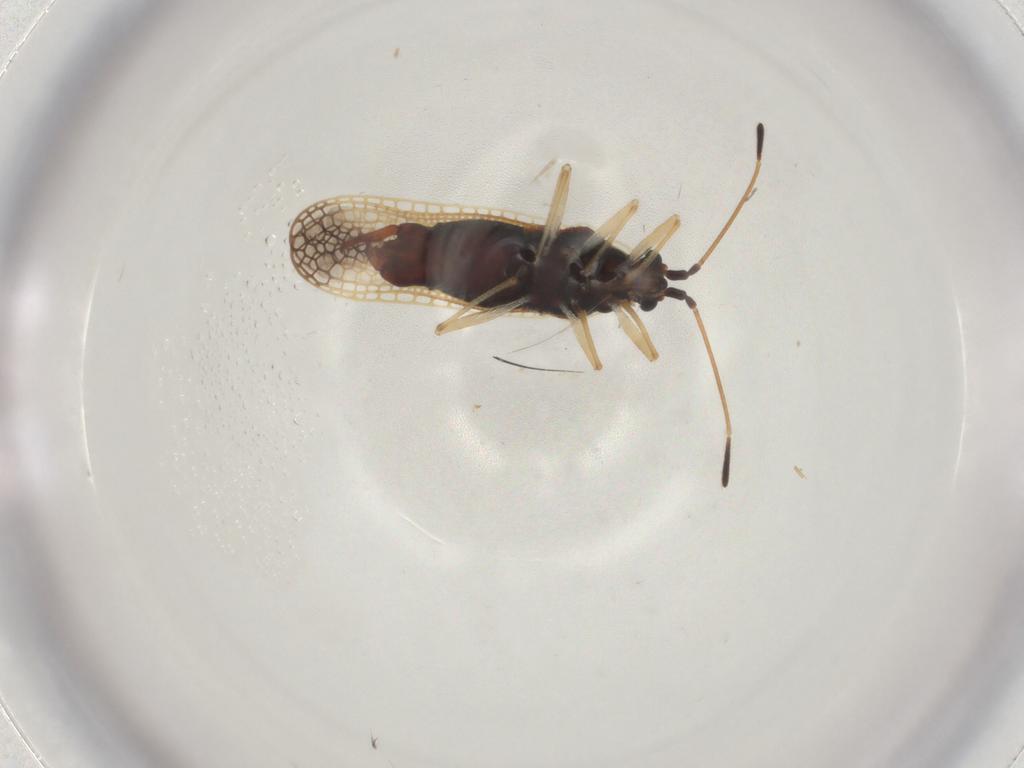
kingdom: Animalia
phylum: Arthropoda
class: Insecta
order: Hemiptera
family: Tingidae
